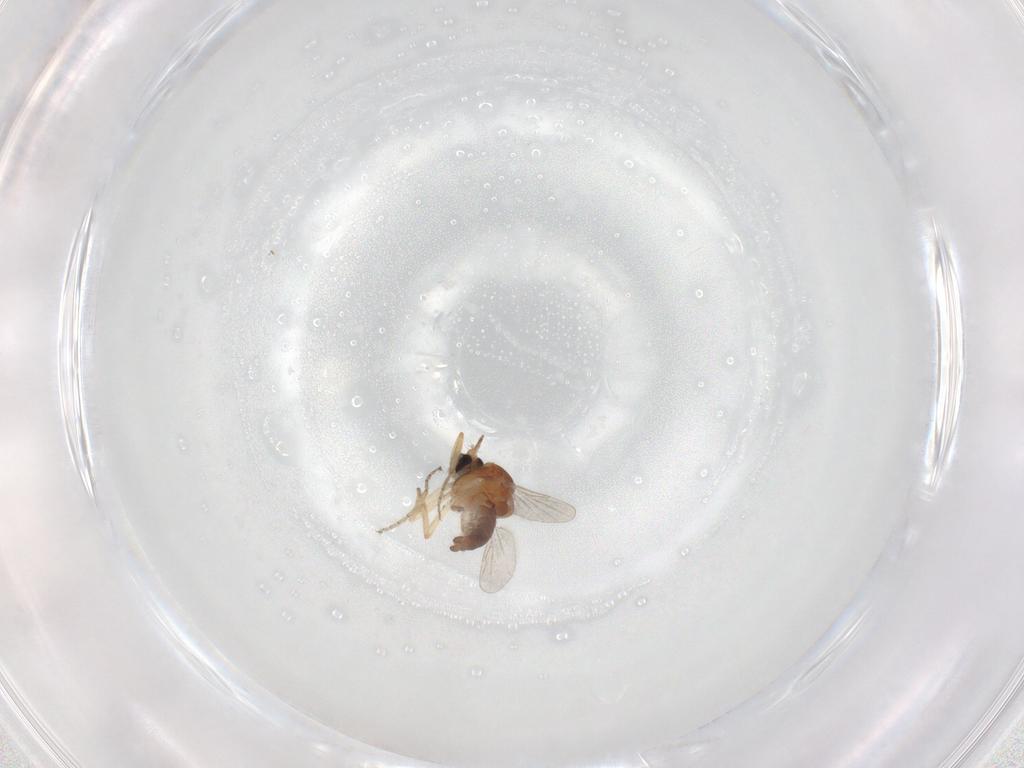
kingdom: Animalia
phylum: Arthropoda
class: Insecta
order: Diptera
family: Ceratopogonidae
